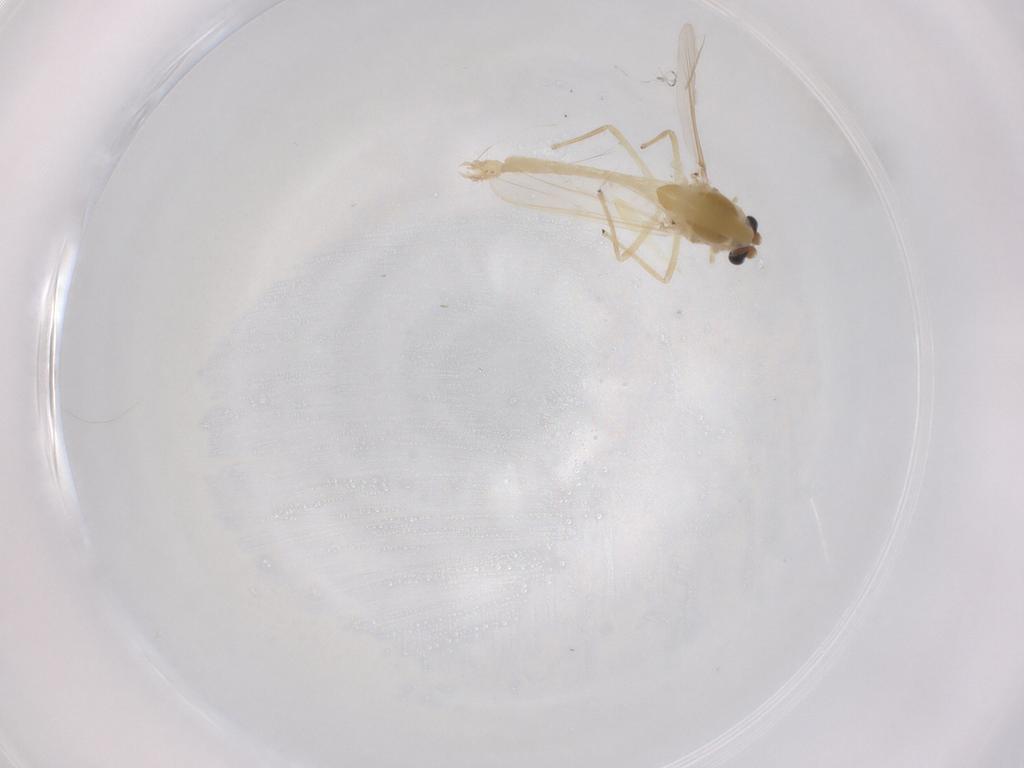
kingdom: Animalia
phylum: Arthropoda
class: Insecta
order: Diptera
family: Chironomidae
